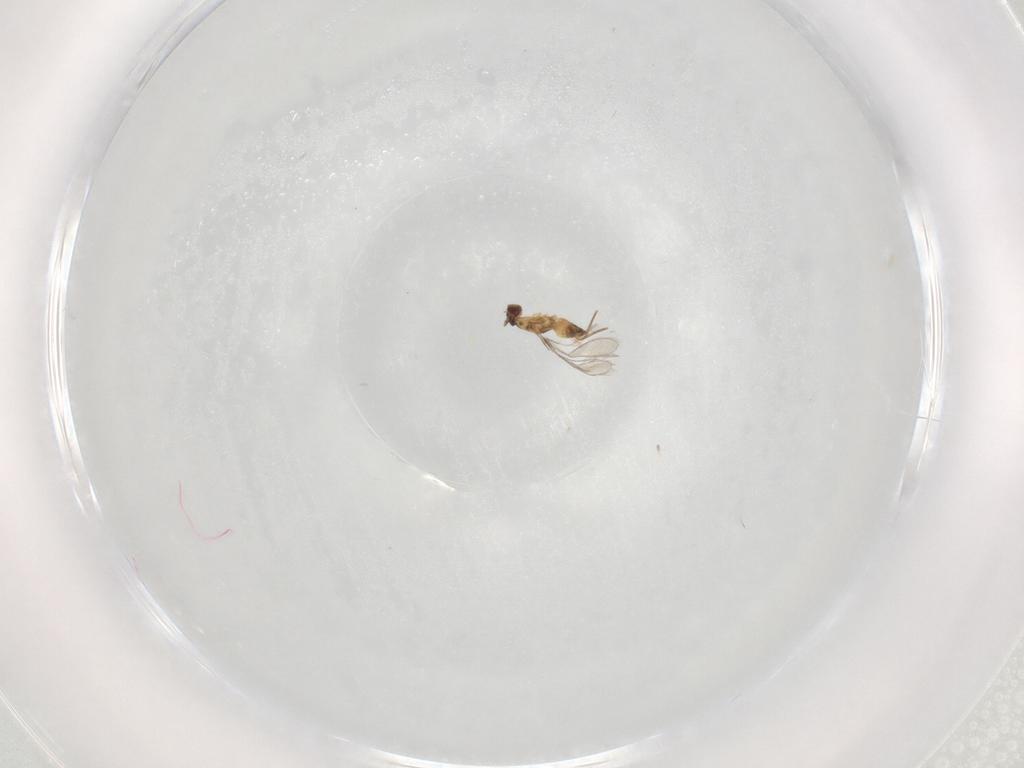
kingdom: Animalia
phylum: Arthropoda
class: Insecta
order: Hymenoptera
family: Mymaridae
